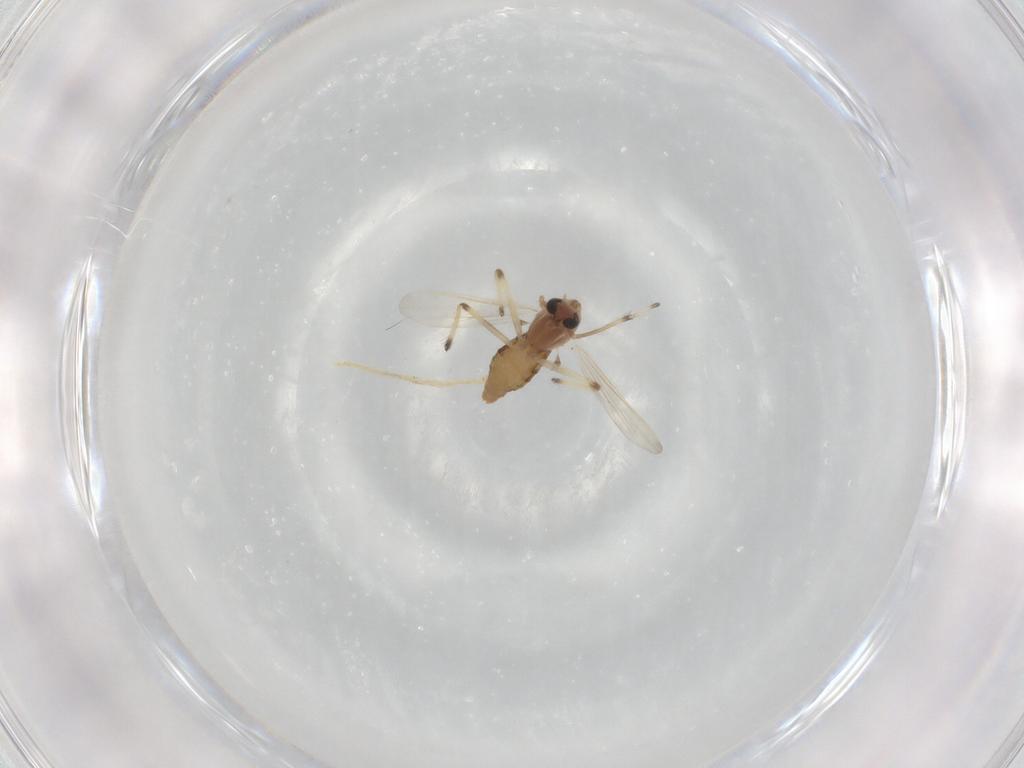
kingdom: Animalia
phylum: Arthropoda
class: Insecta
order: Diptera
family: Chironomidae
